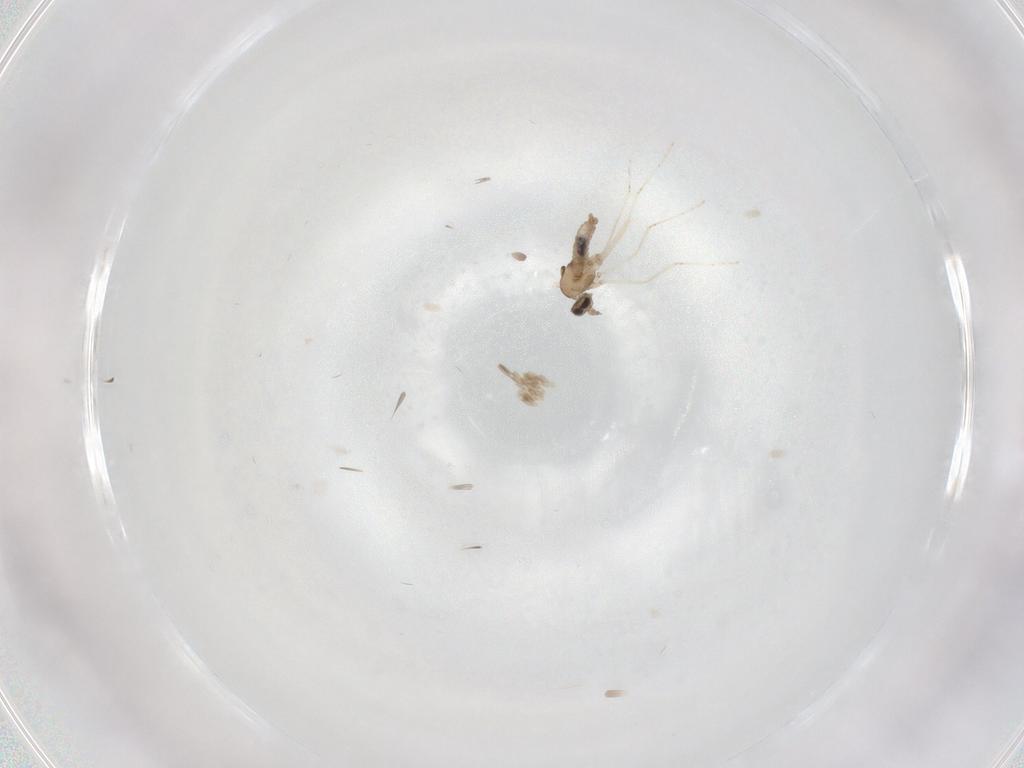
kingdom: Animalia
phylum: Arthropoda
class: Insecta
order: Diptera
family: Cecidomyiidae
